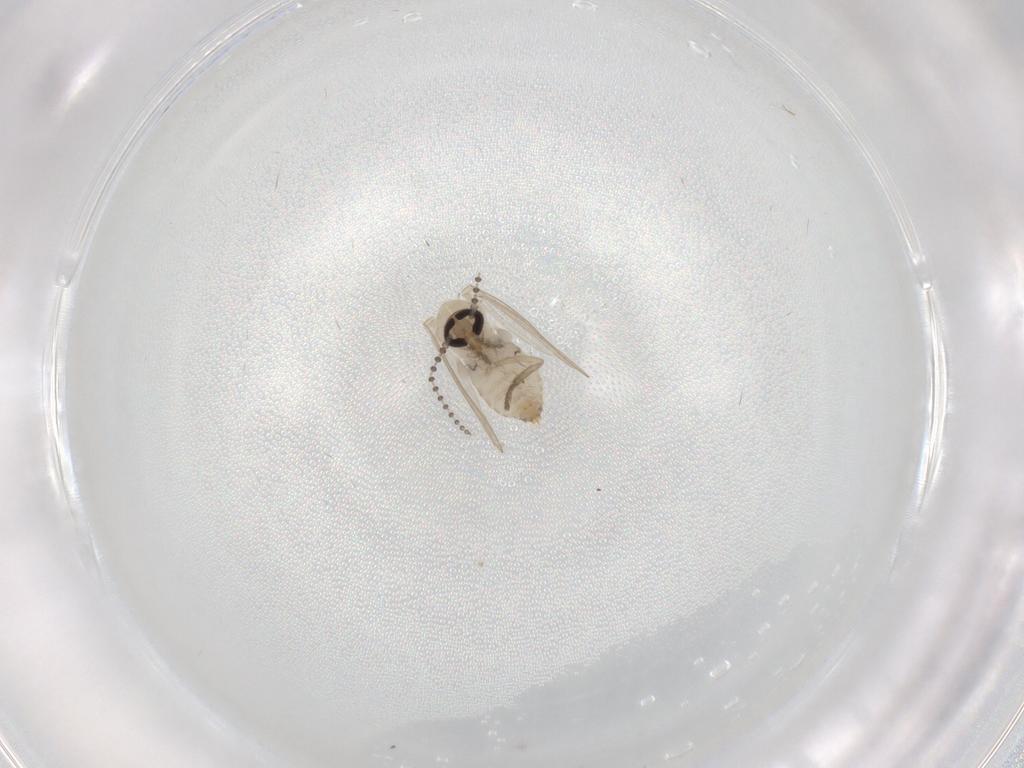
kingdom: Animalia
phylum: Arthropoda
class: Insecta
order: Diptera
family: Psychodidae
